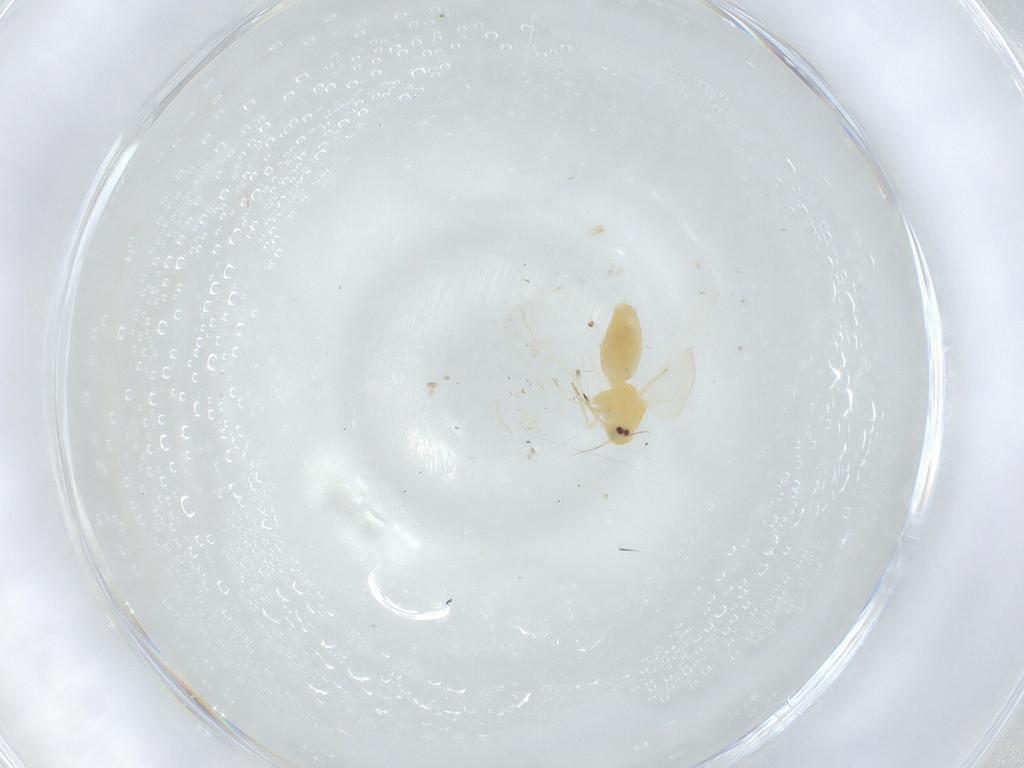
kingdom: Animalia
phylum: Arthropoda
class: Insecta
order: Hemiptera
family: Aleyrodidae
